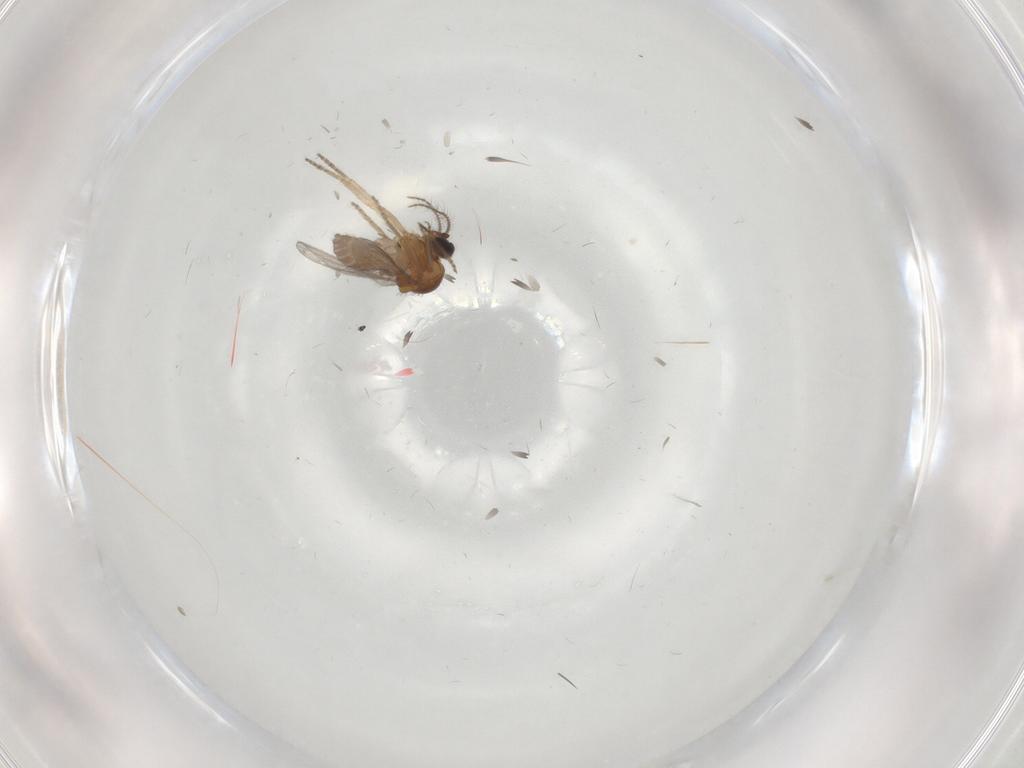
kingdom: Animalia
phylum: Arthropoda
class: Insecta
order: Diptera
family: Ceratopogonidae
